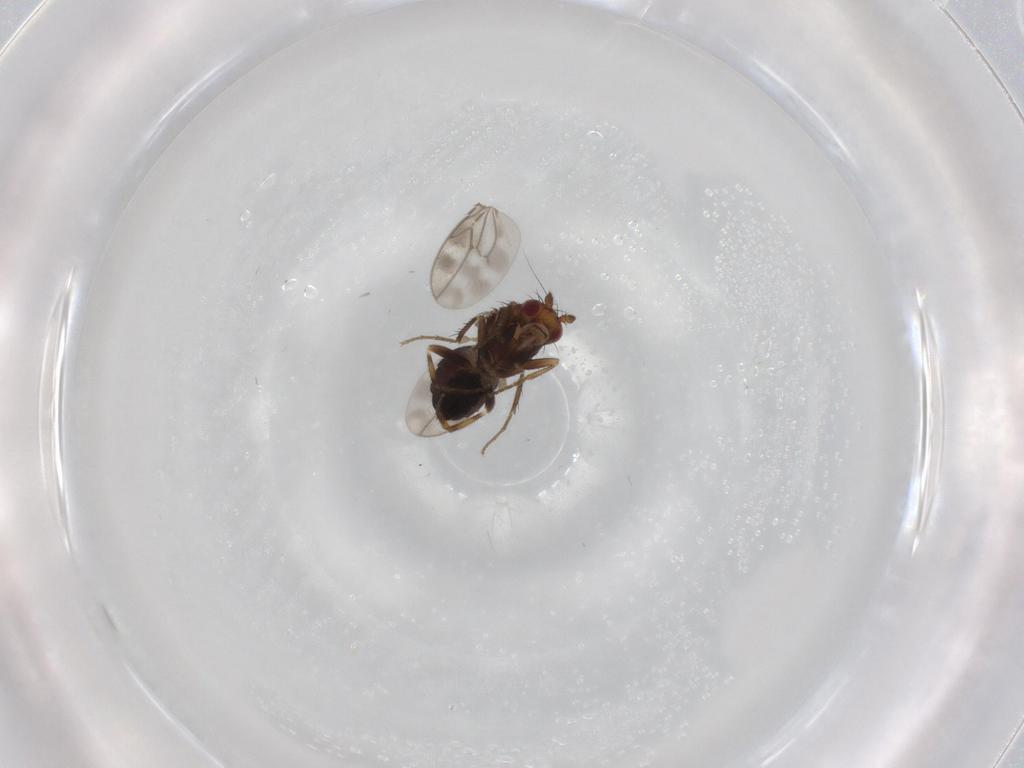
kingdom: Animalia
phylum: Arthropoda
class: Insecta
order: Diptera
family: Sphaeroceridae
